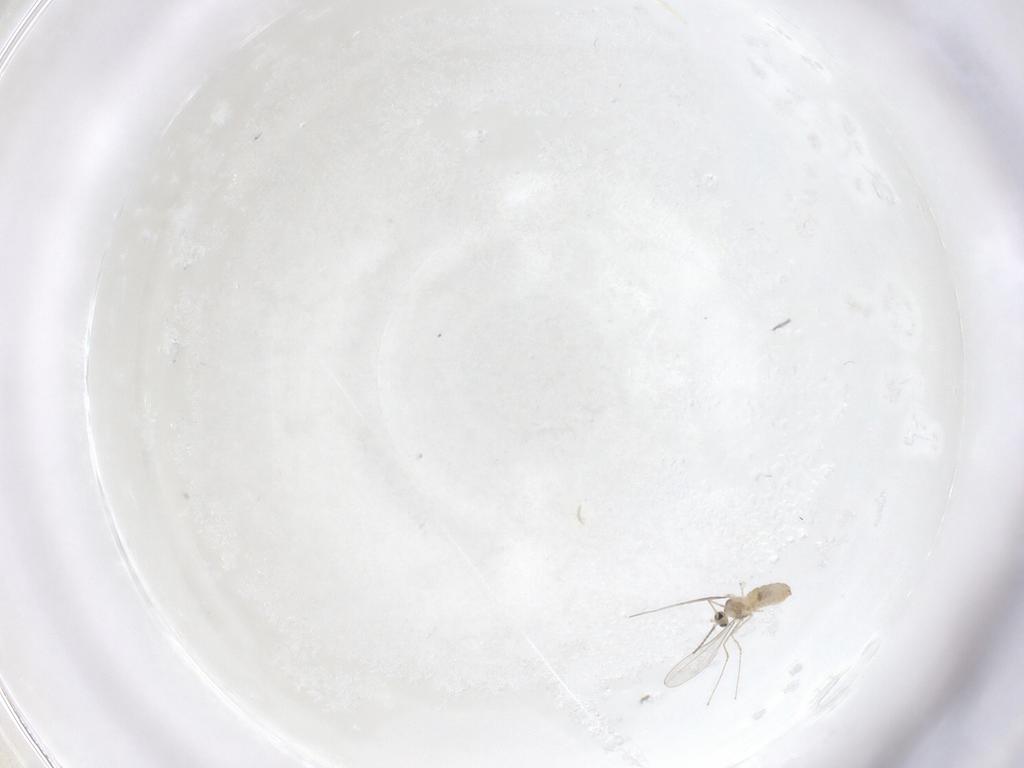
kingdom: Animalia
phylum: Arthropoda
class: Insecta
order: Diptera
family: Cecidomyiidae
